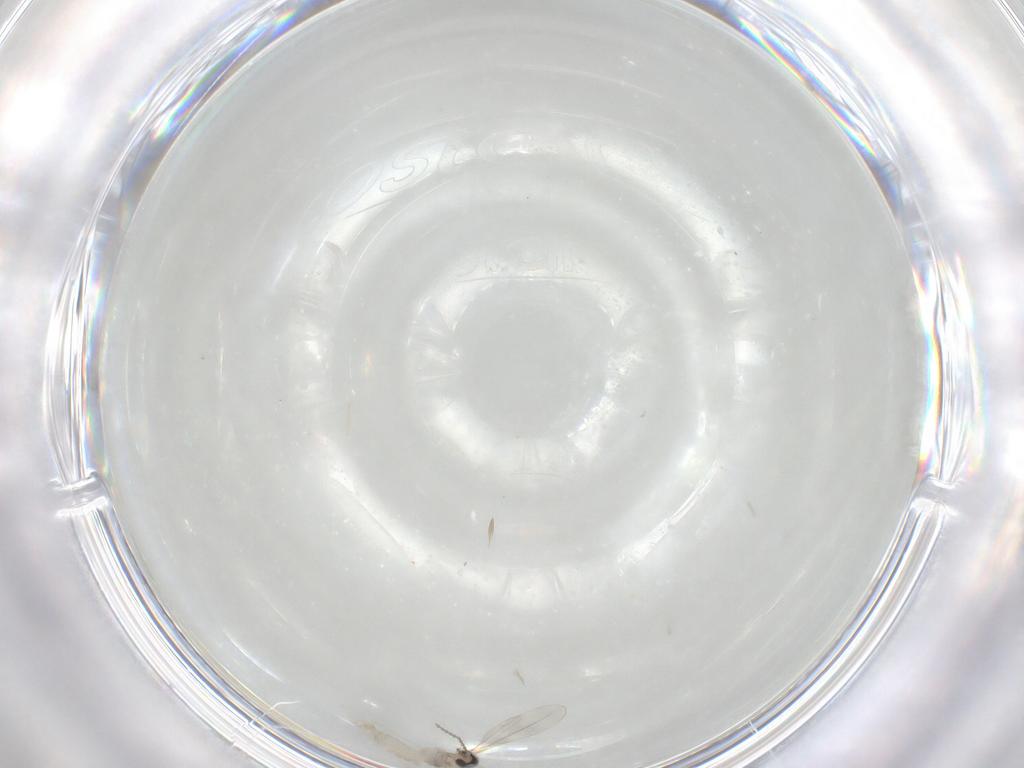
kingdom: Animalia
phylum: Arthropoda
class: Insecta
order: Diptera
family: Cecidomyiidae
